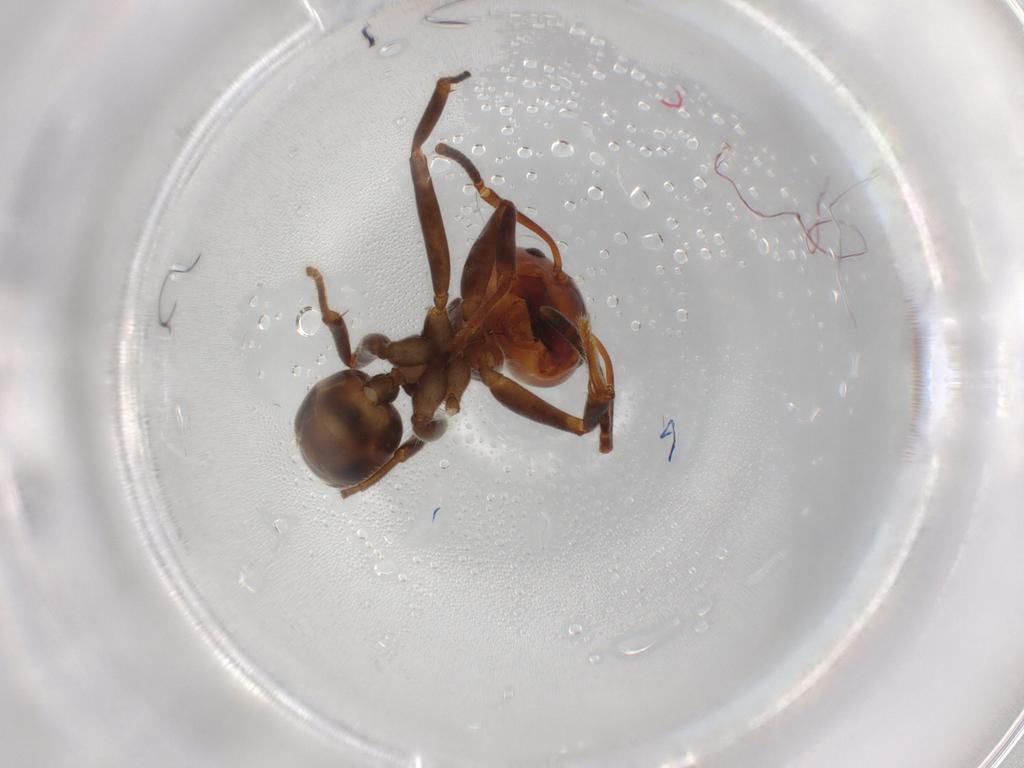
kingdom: Animalia
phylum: Arthropoda
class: Insecta
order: Hymenoptera
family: Formicidae
